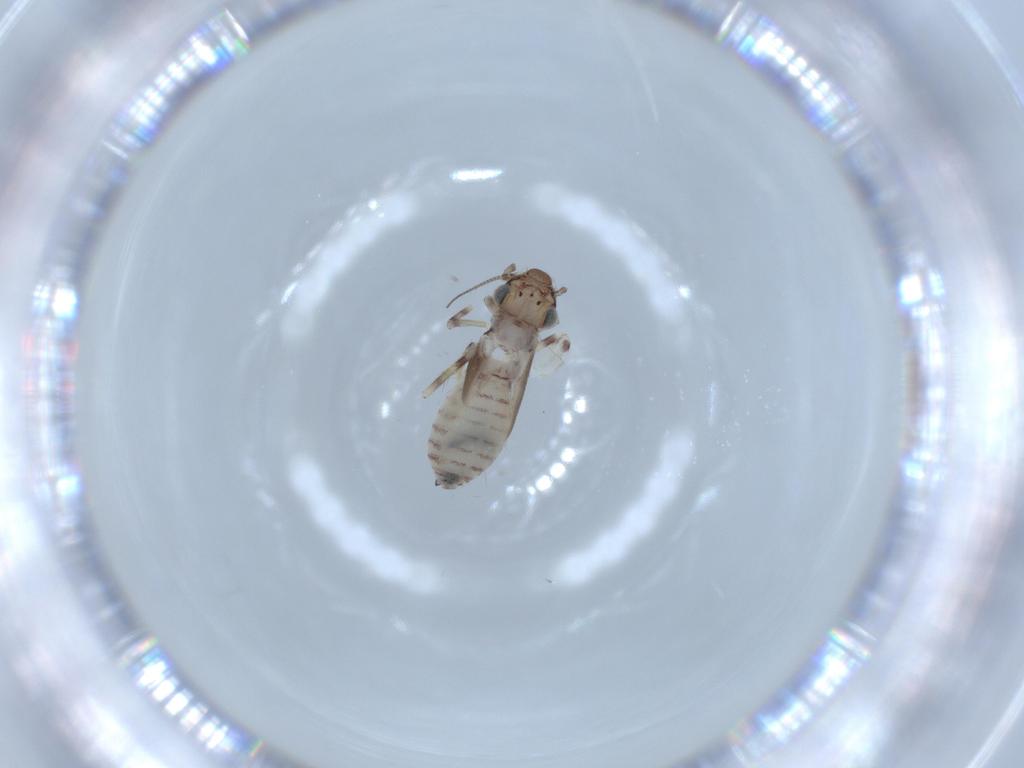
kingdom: Animalia
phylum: Arthropoda
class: Insecta
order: Psocodea
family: Lepidopsocidae
